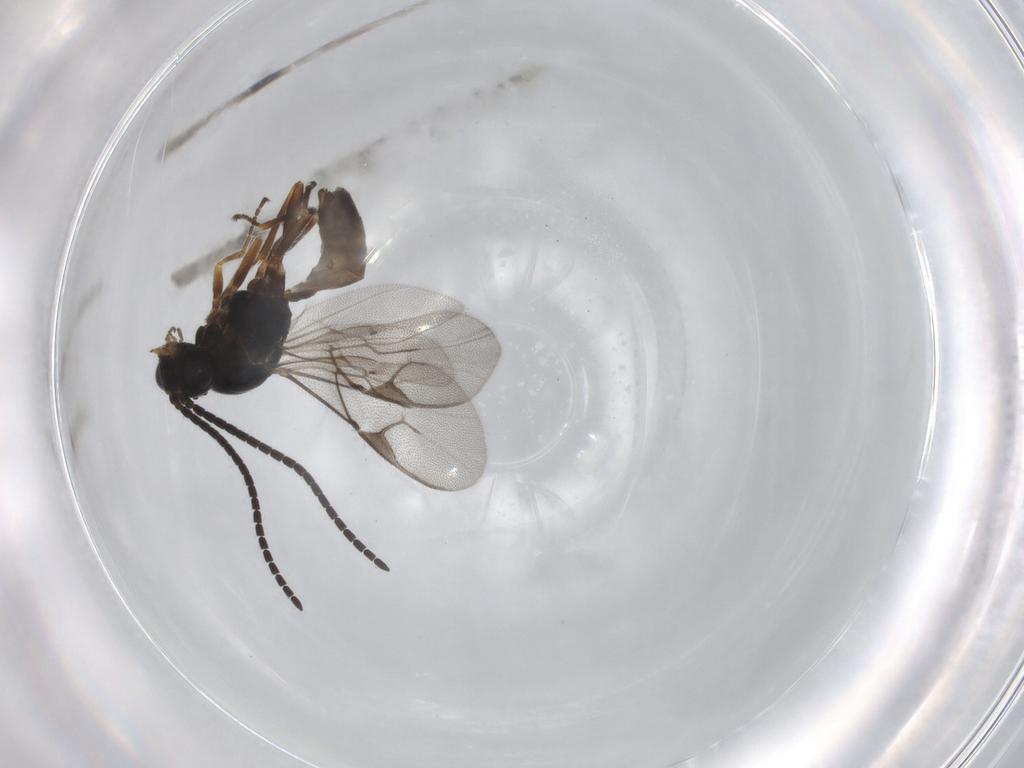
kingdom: Animalia
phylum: Arthropoda
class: Insecta
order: Hymenoptera
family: Braconidae
